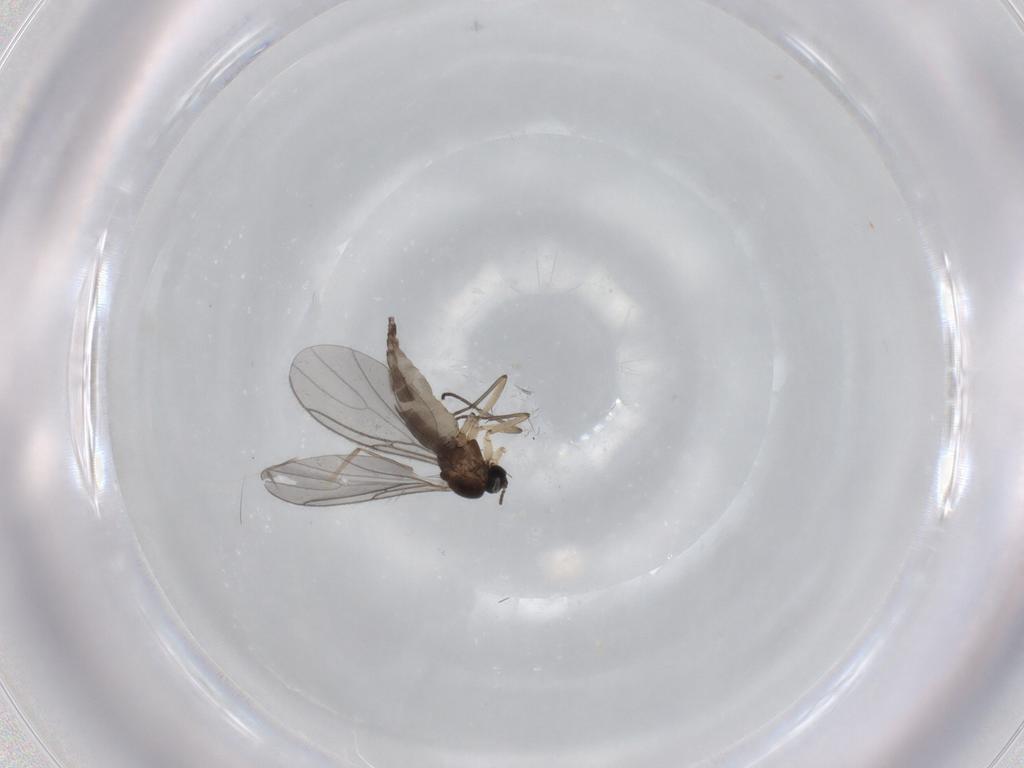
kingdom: Animalia
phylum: Arthropoda
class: Insecta
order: Diptera
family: Sciaridae
